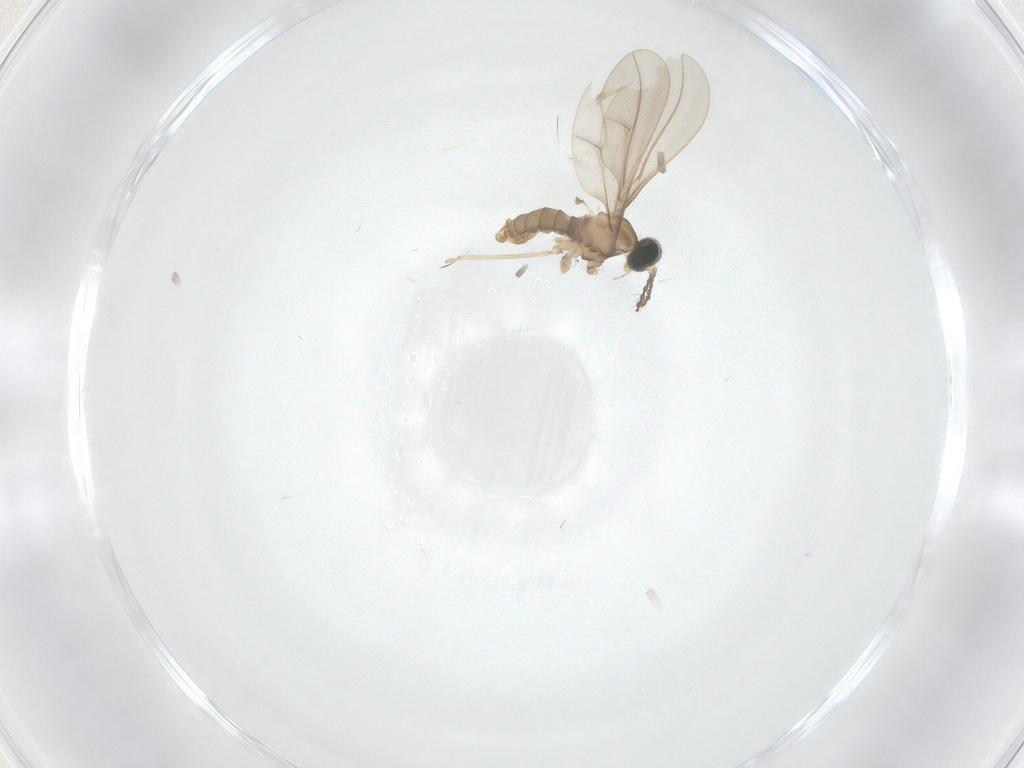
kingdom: Animalia
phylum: Arthropoda
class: Insecta
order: Diptera
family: Cecidomyiidae
